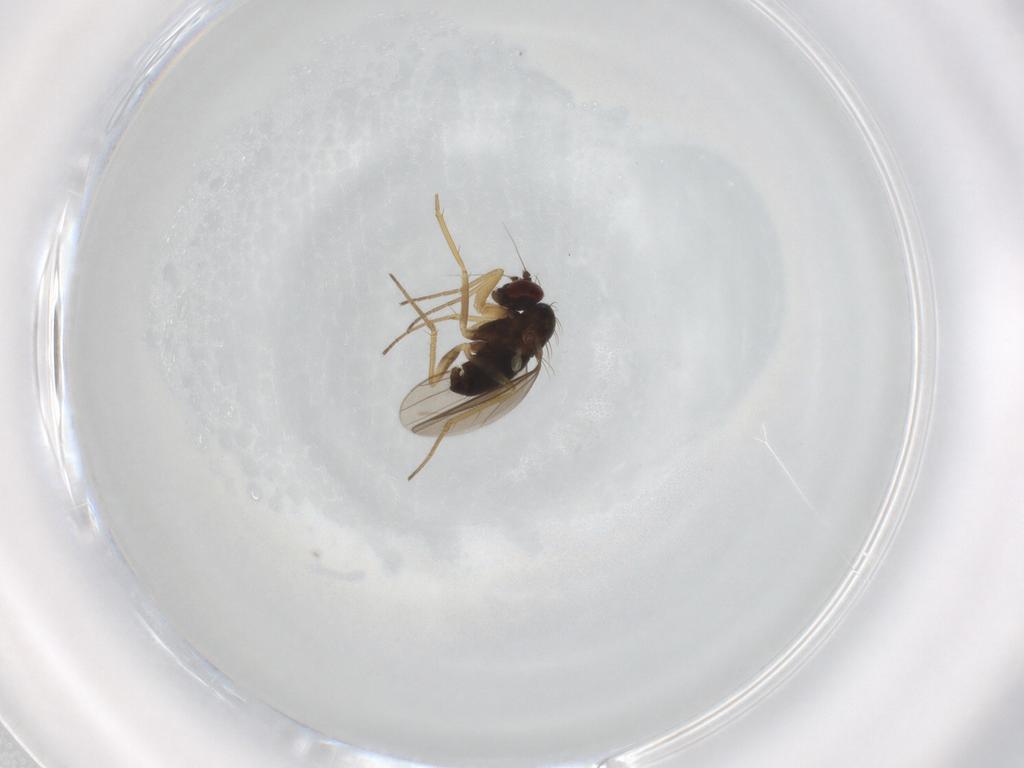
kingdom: Animalia
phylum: Arthropoda
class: Insecta
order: Diptera
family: Dolichopodidae
